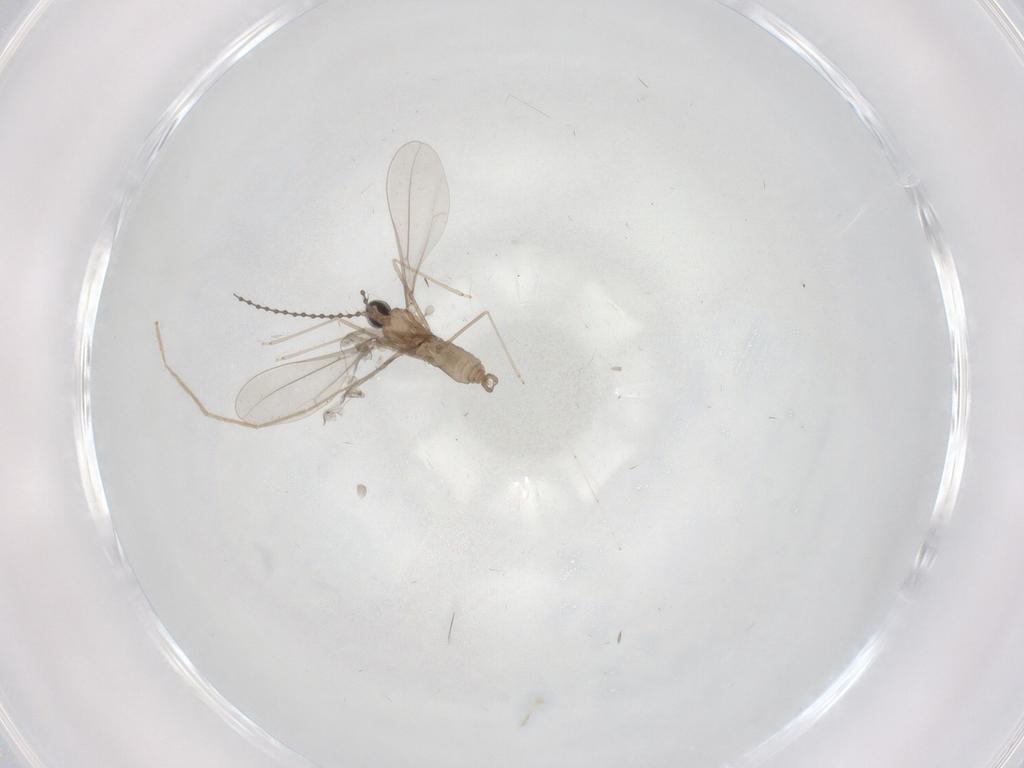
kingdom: Animalia
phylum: Arthropoda
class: Insecta
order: Diptera
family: Cecidomyiidae
